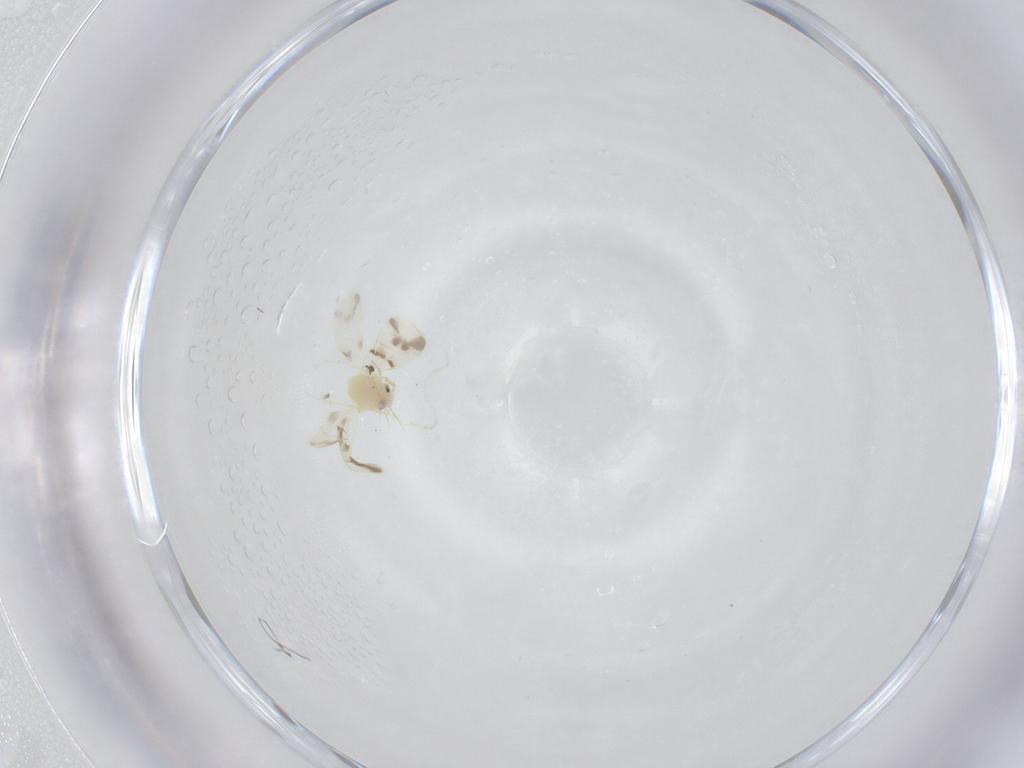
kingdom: Animalia
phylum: Arthropoda
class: Insecta
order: Hemiptera
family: Aleyrodidae
